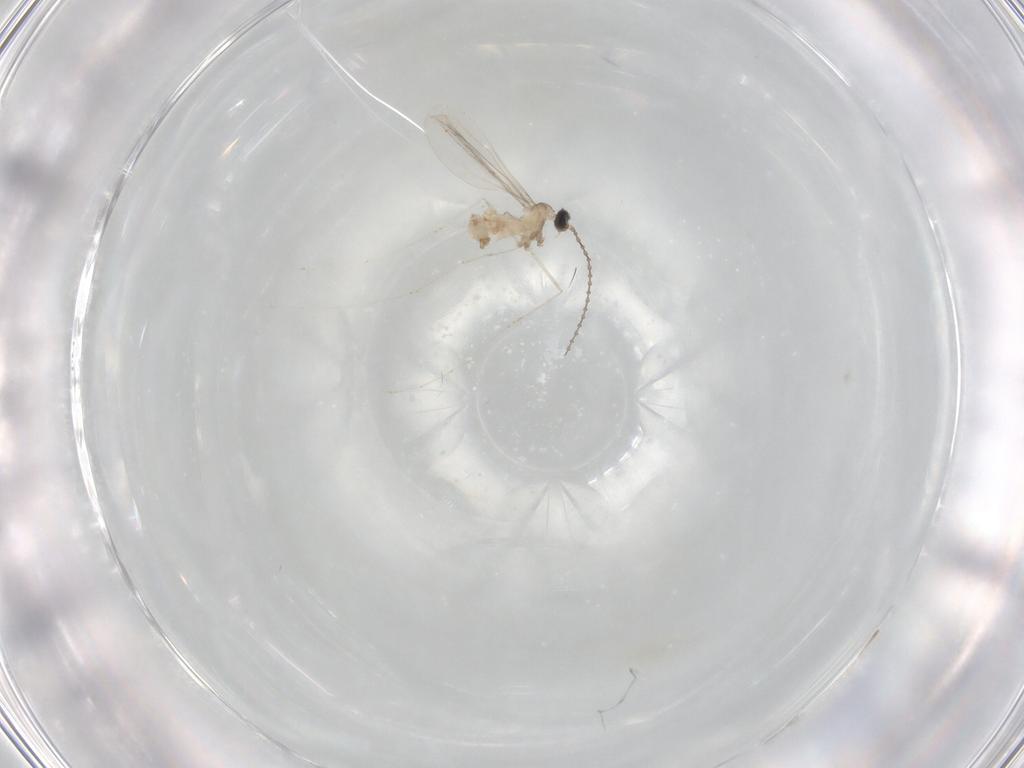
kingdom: Animalia
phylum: Arthropoda
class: Insecta
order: Diptera
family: Cecidomyiidae
